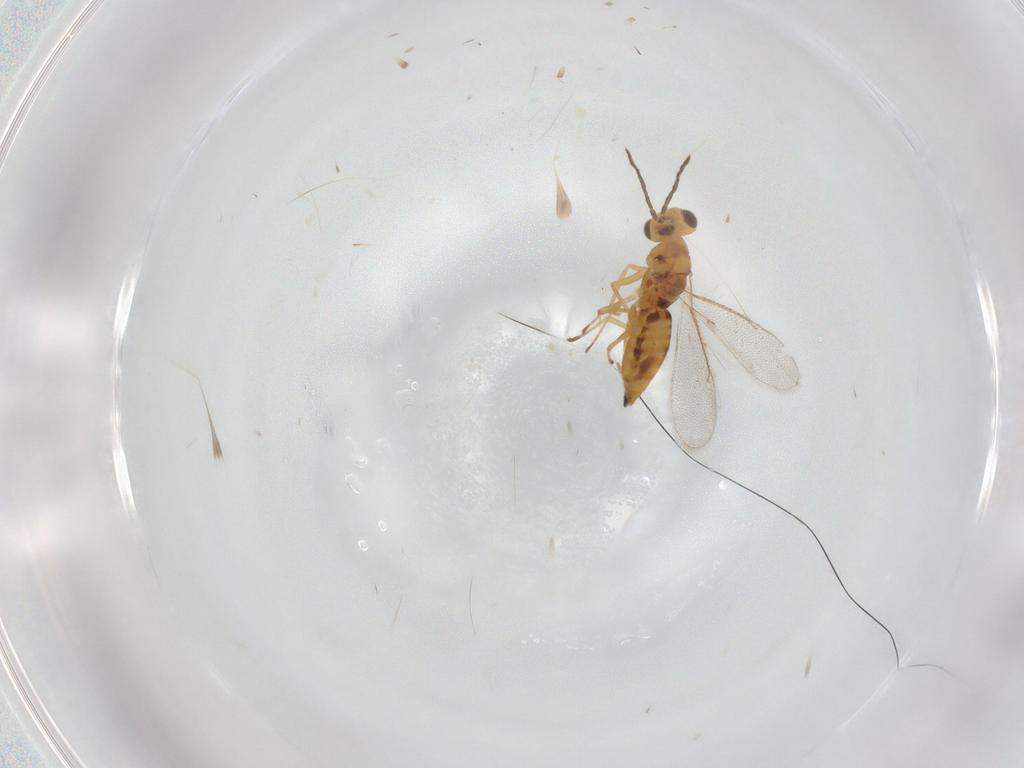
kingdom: Animalia
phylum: Arthropoda
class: Insecta
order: Hymenoptera
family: Eulophidae
